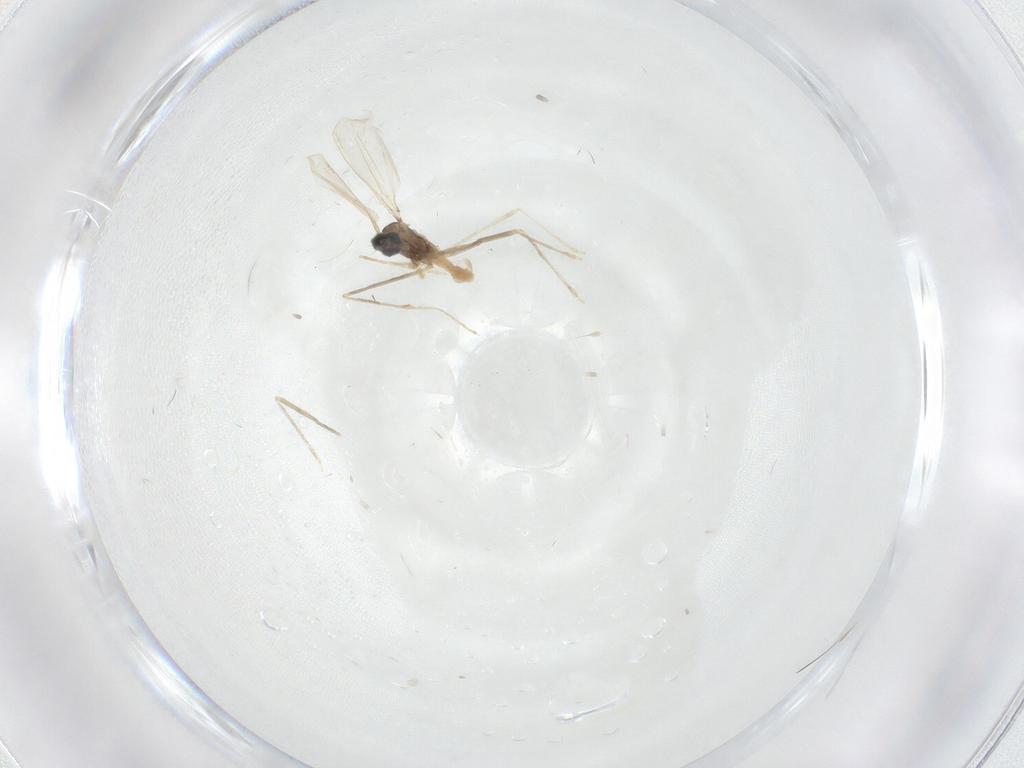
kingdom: Animalia
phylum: Arthropoda
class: Insecta
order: Diptera
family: Cecidomyiidae
